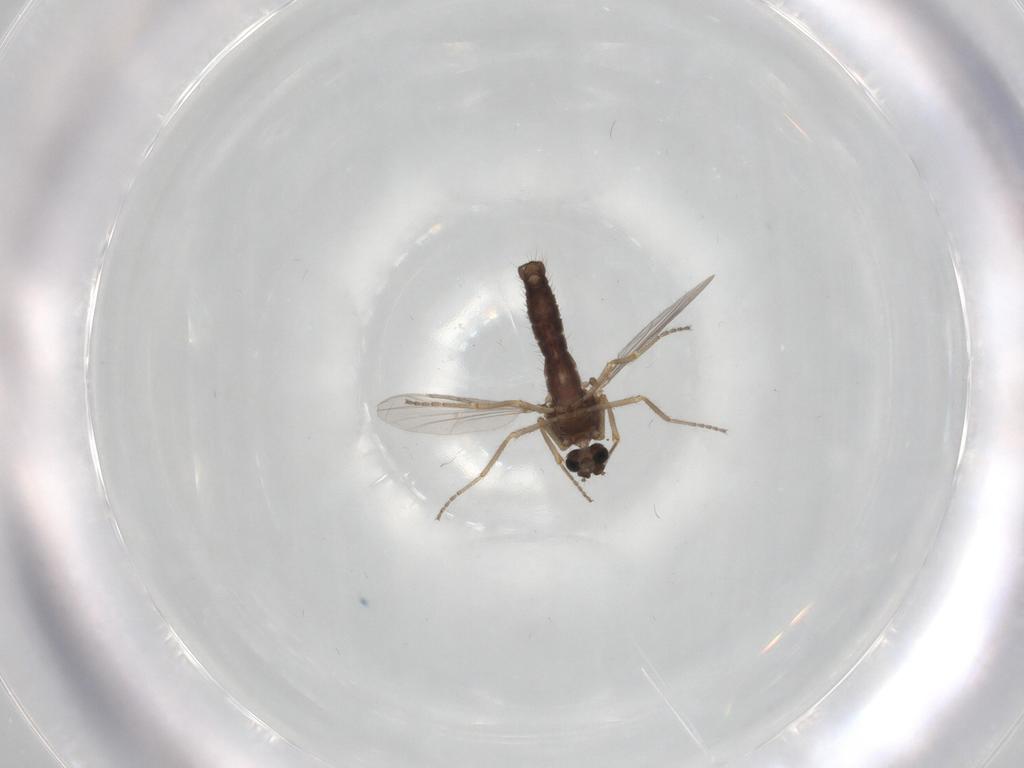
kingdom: Animalia
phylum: Arthropoda
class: Insecta
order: Diptera
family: Ceratopogonidae
